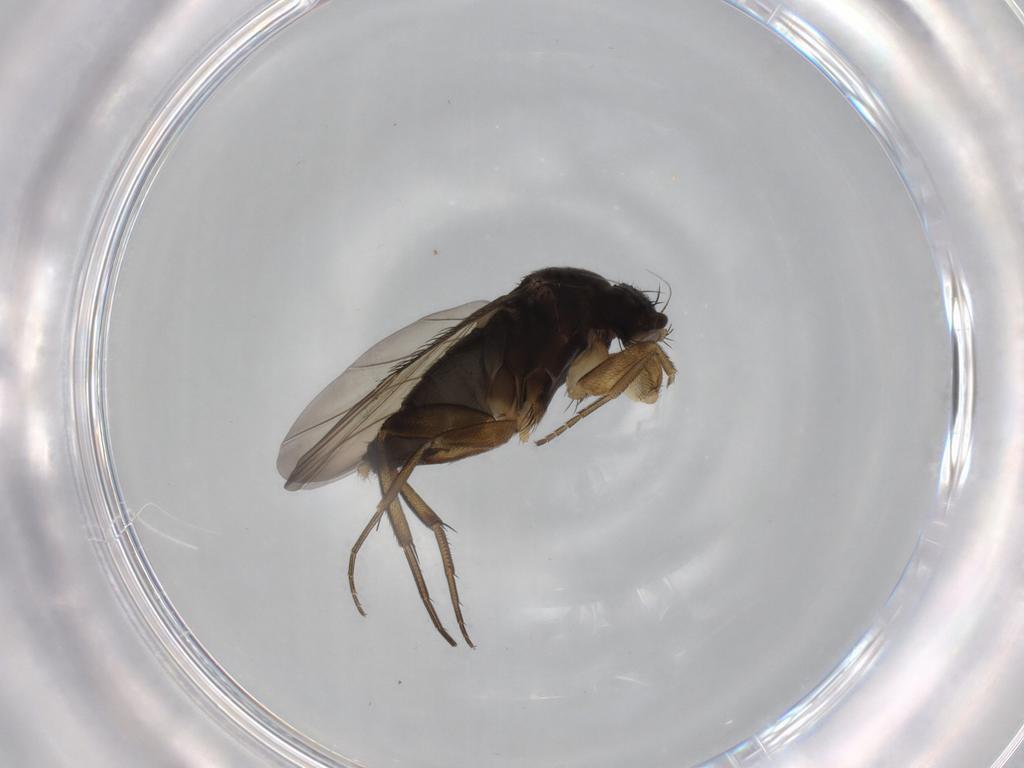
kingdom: Animalia
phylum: Arthropoda
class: Insecta
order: Diptera
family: Phoridae
